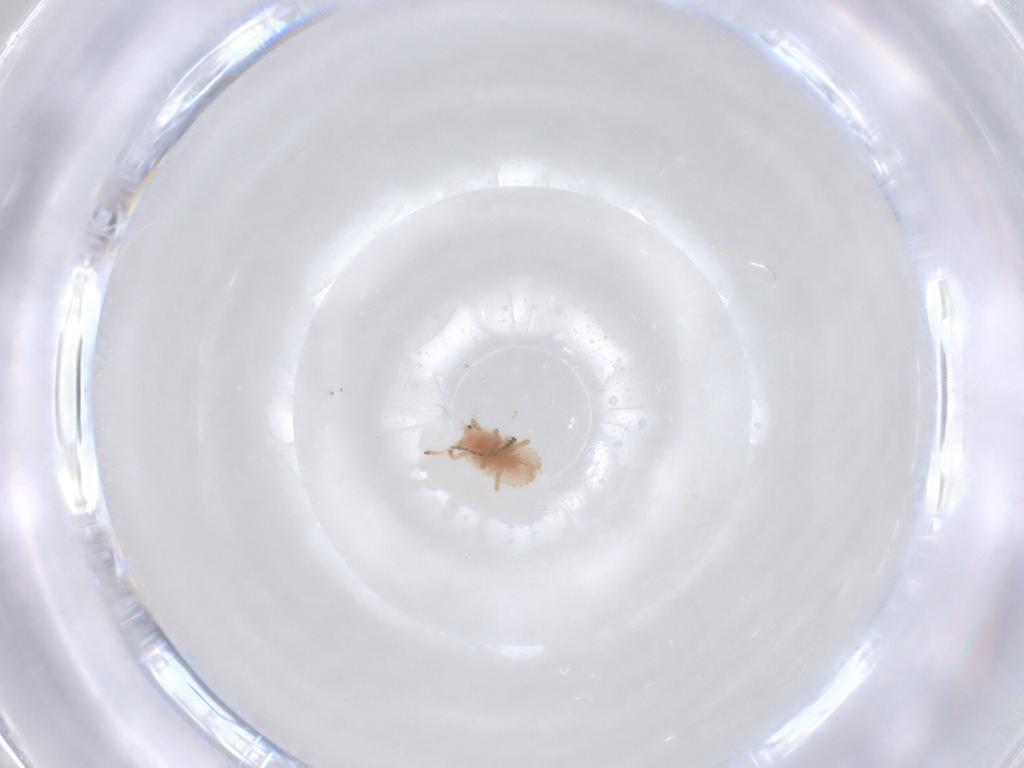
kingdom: Animalia
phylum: Arthropoda
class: Insecta
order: Hemiptera
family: Coccoidea_incertae_sedis
